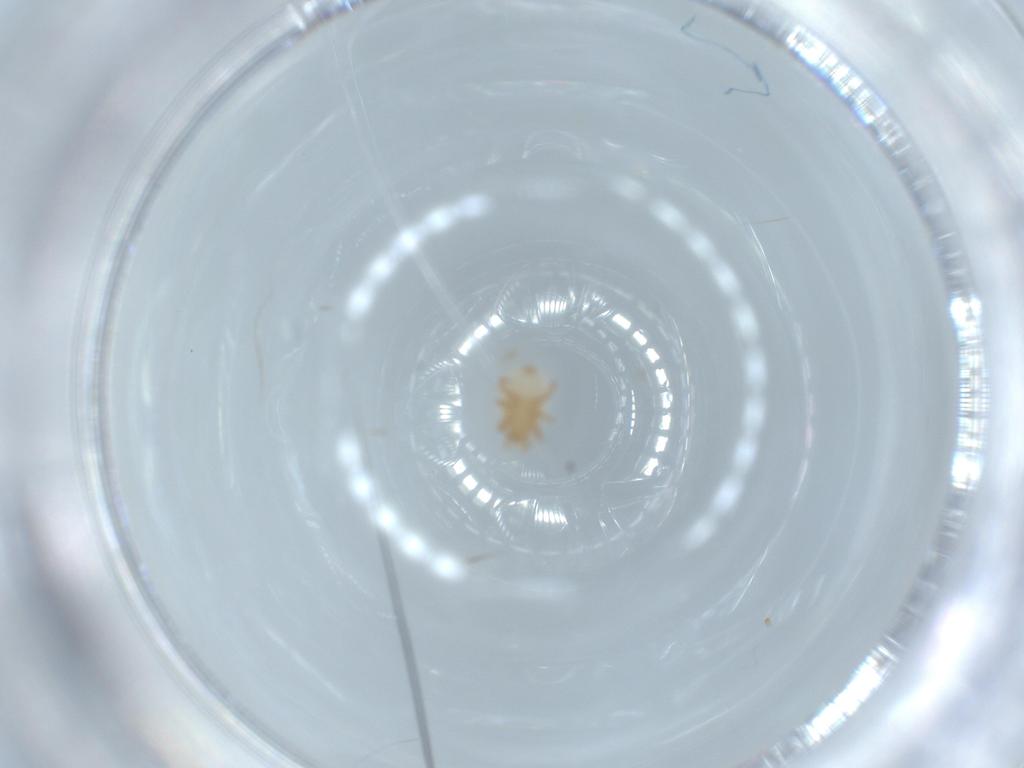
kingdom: Animalia
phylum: Arthropoda
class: Arachnida
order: Mesostigmata
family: Halolaelapidae
